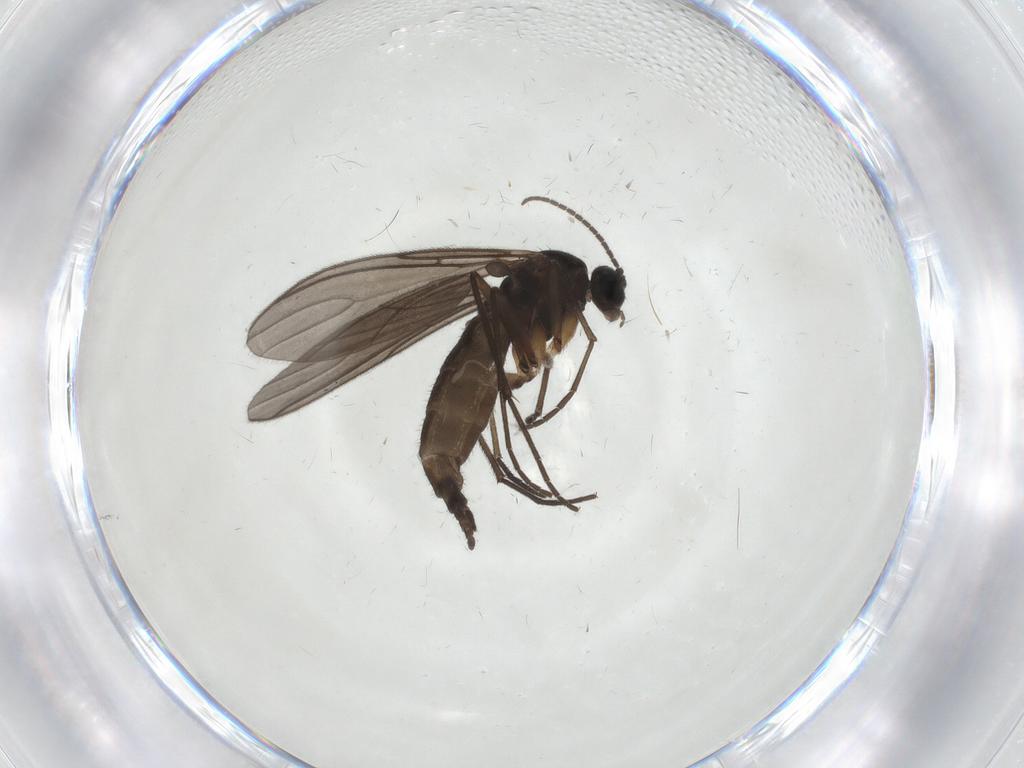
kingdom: Animalia
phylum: Arthropoda
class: Insecta
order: Diptera
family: Sciaridae
